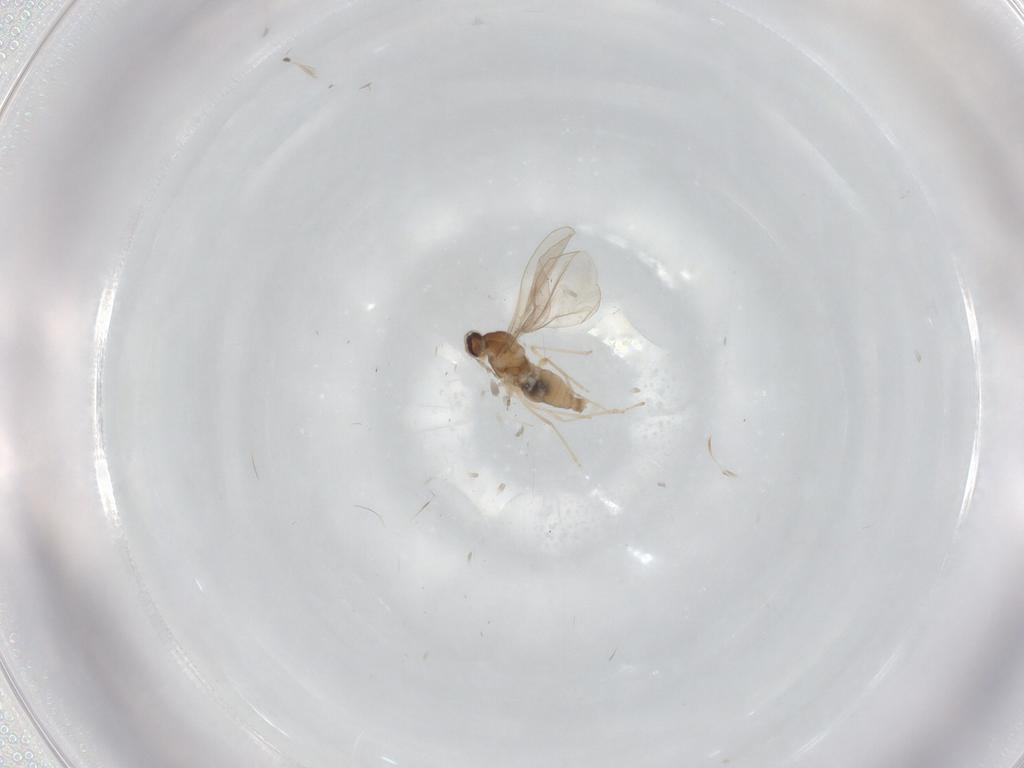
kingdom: Animalia
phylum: Arthropoda
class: Insecta
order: Diptera
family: Cecidomyiidae
